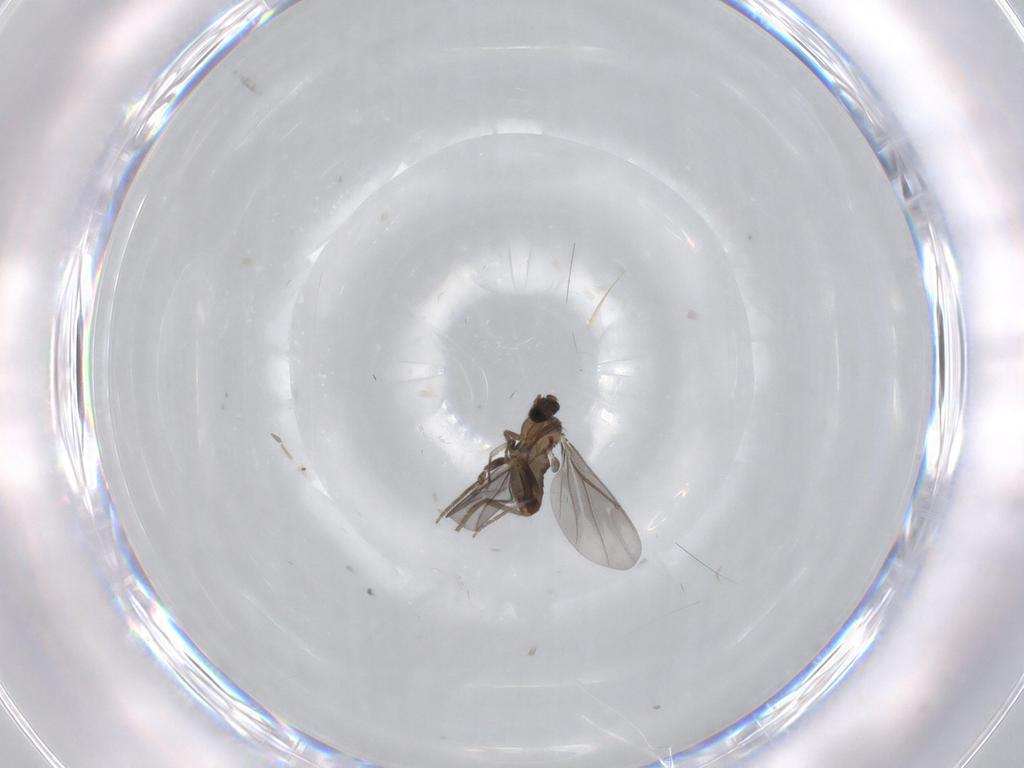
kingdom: Animalia
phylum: Arthropoda
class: Insecta
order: Diptera
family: Phoridae
